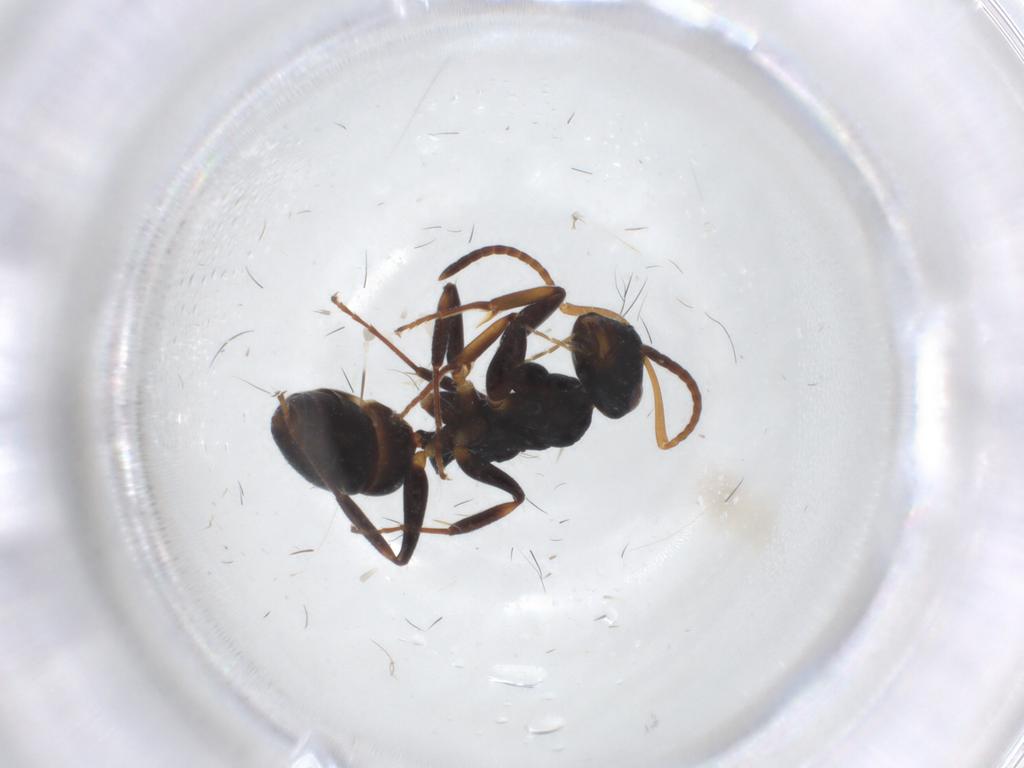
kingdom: Animalia
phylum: Arthropoda
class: Insecta
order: Hymenoptera
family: Formicidae
